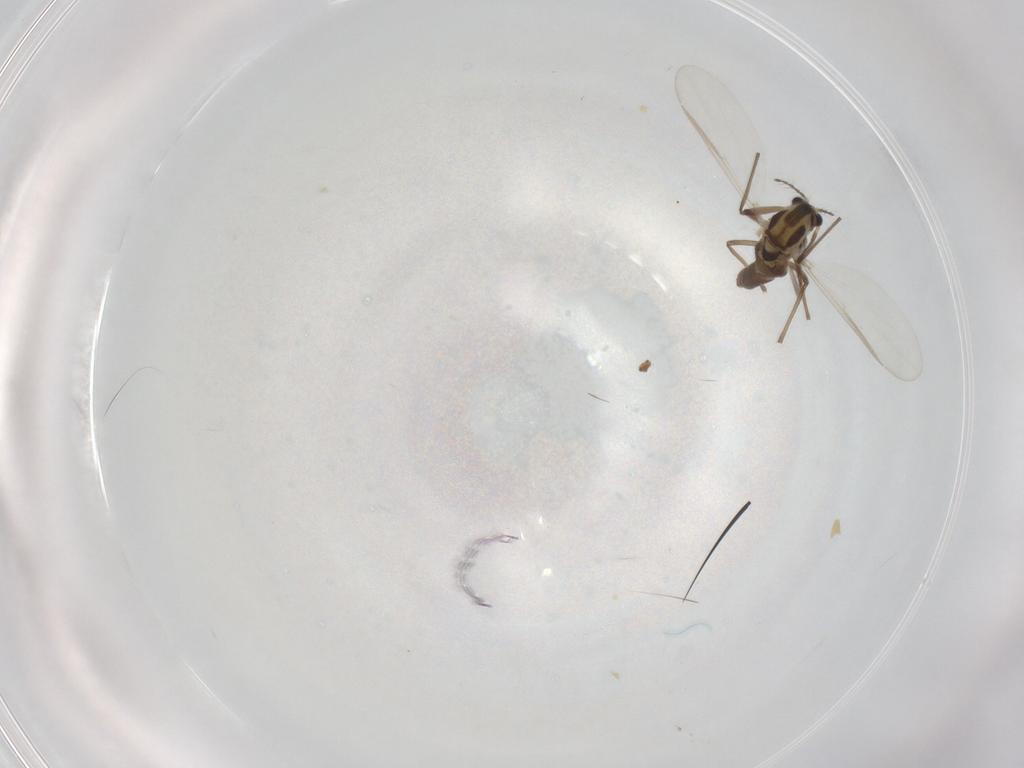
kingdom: Animalia
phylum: Arthropoda
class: Insecta
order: Diptera
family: Chironomidae
